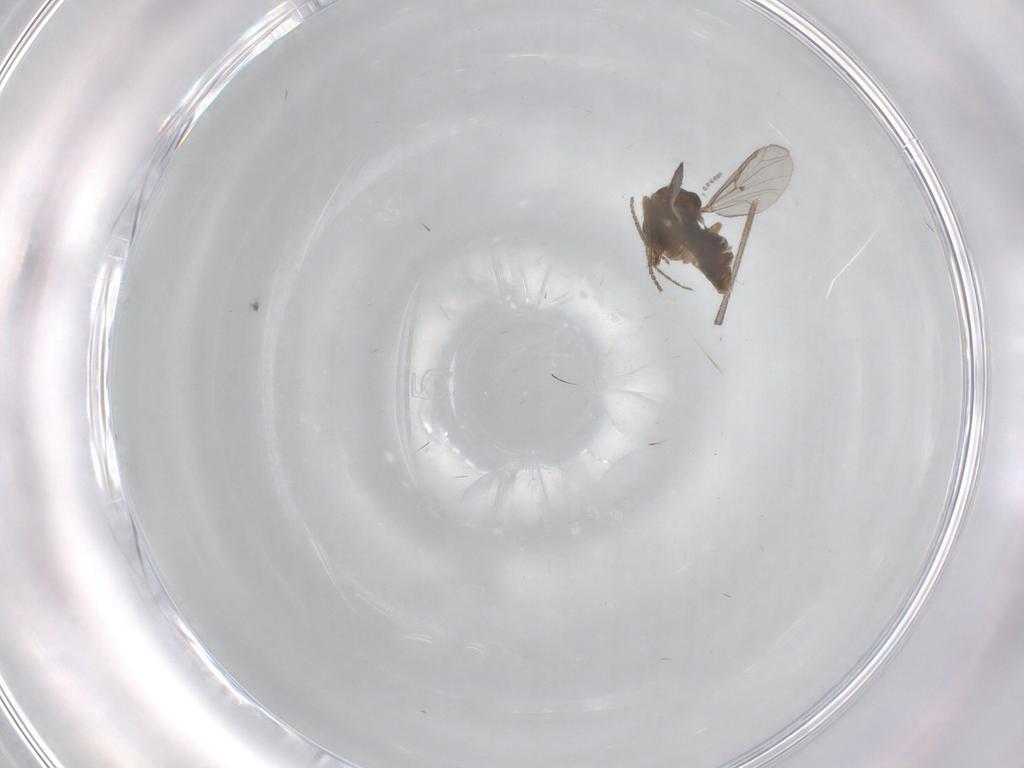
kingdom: Animalia
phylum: Arthropoda
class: Insecta
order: Diptera
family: Ceratopogonidae
